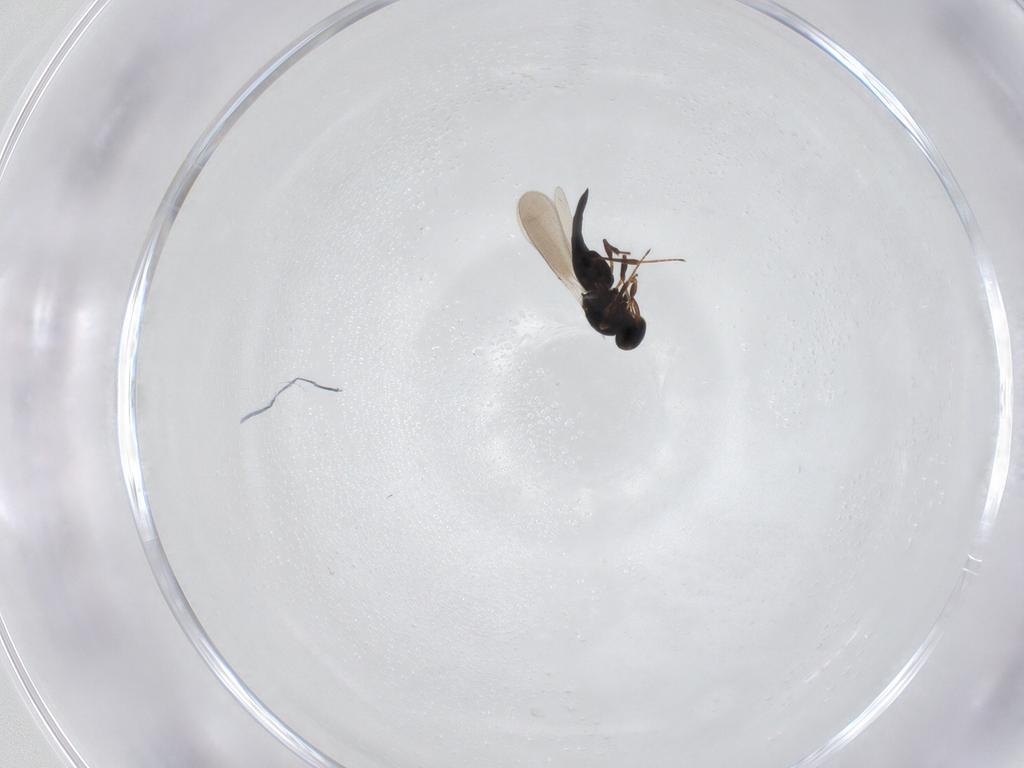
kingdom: Animalia
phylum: Arthropoda
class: Insecta
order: Hymenoptera
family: Platygastridae
